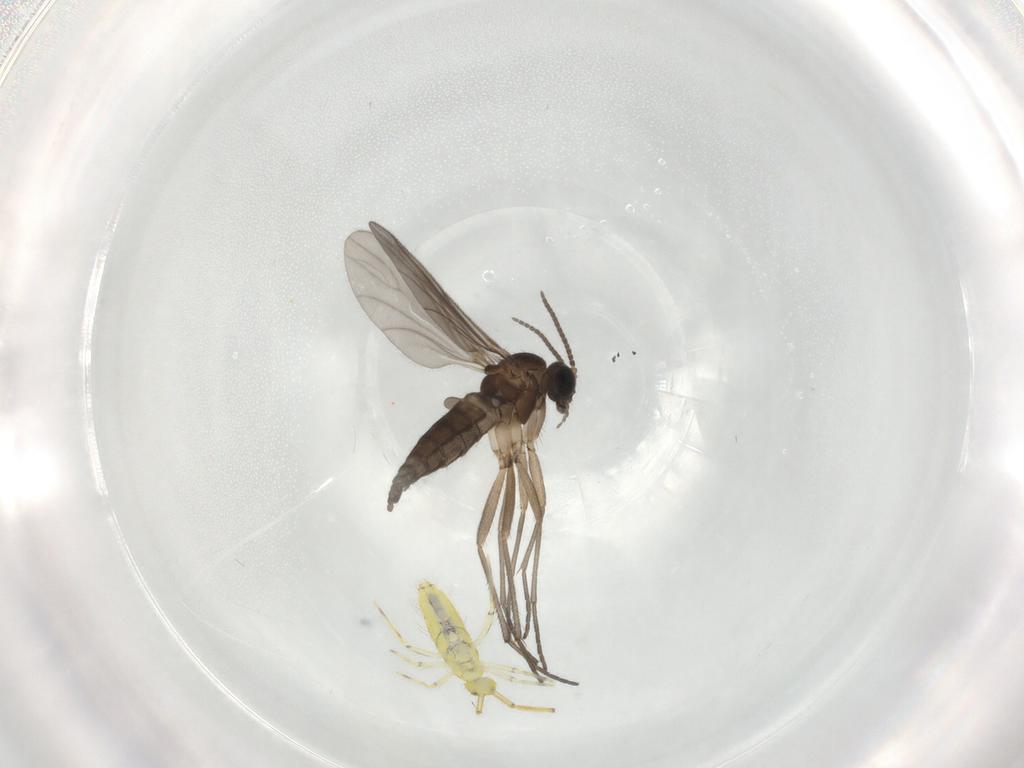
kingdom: Animalia
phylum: Arthropoda
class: Insecta
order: Diptera
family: Sciaridae
